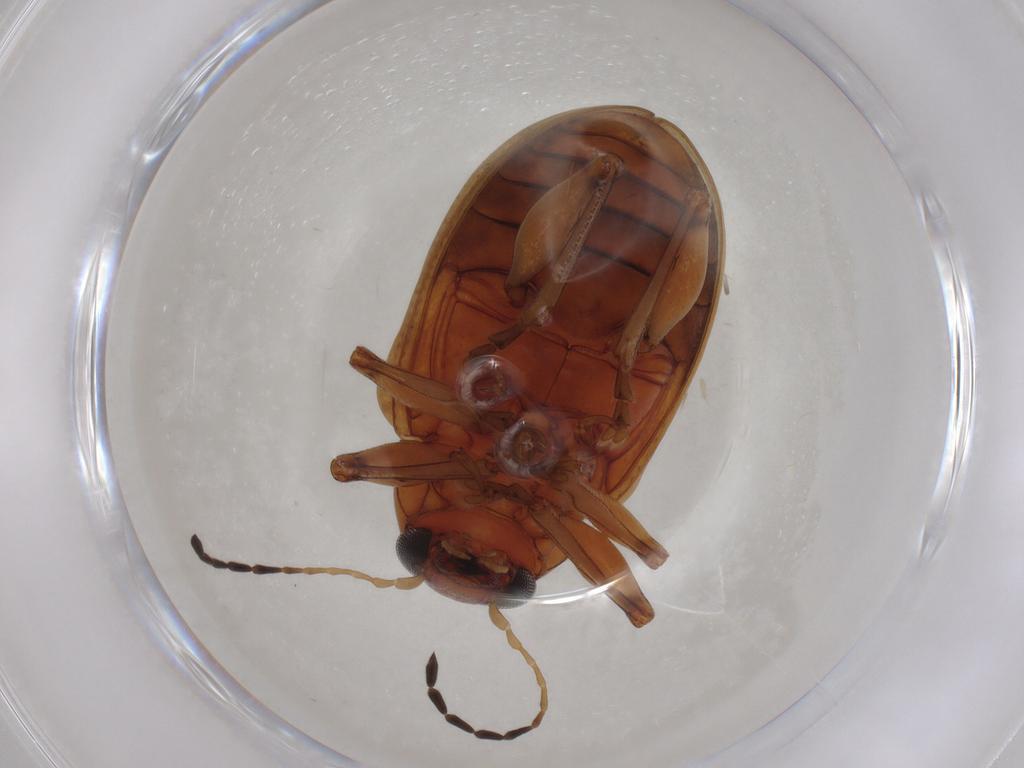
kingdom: Animalia
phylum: Arthropoda
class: Insecta
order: Coleoptera
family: Chrysomelidae
